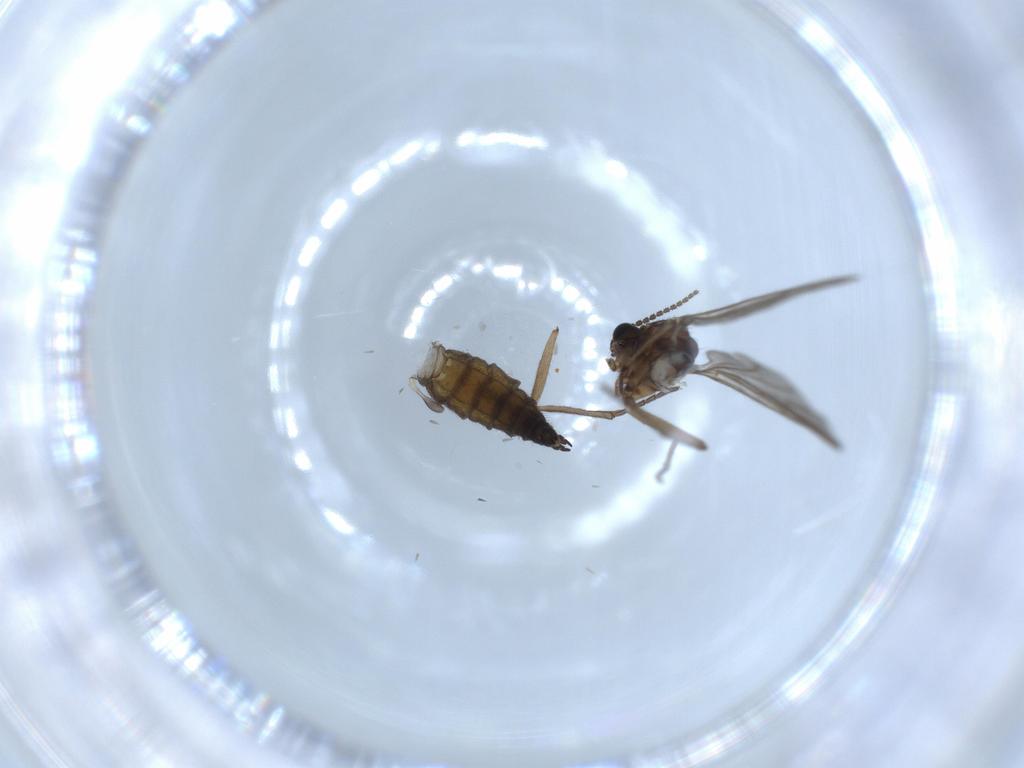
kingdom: Animalia
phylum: Arthropoda
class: Insecta
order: Diptera
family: Sciaridae
